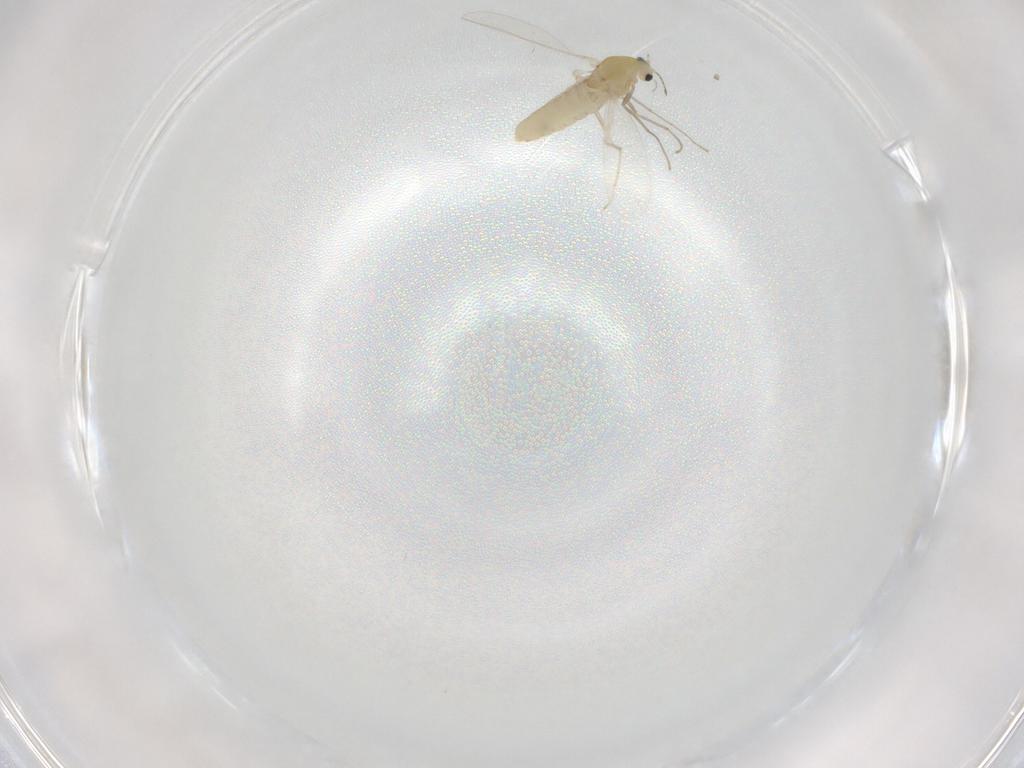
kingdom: Animalia
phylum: Arthropoda
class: Insecta
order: Diptera
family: Chironomidae
